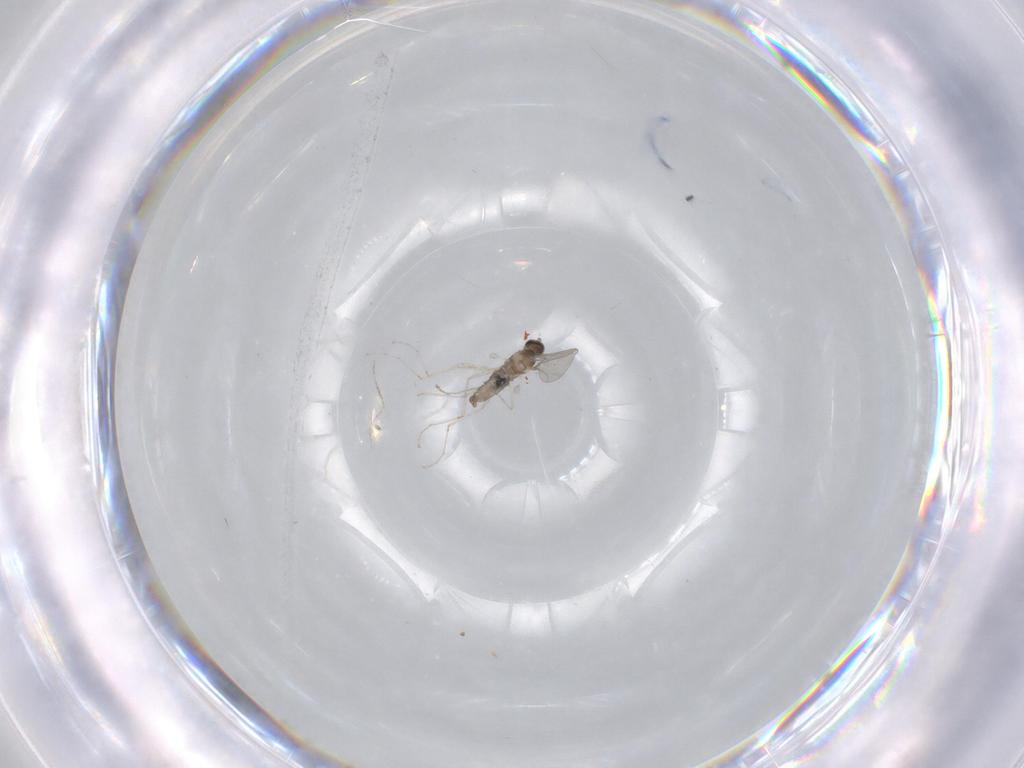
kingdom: Animalia
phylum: Arthropoda
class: Insecta
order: Diptera
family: Cecidomyiidae
